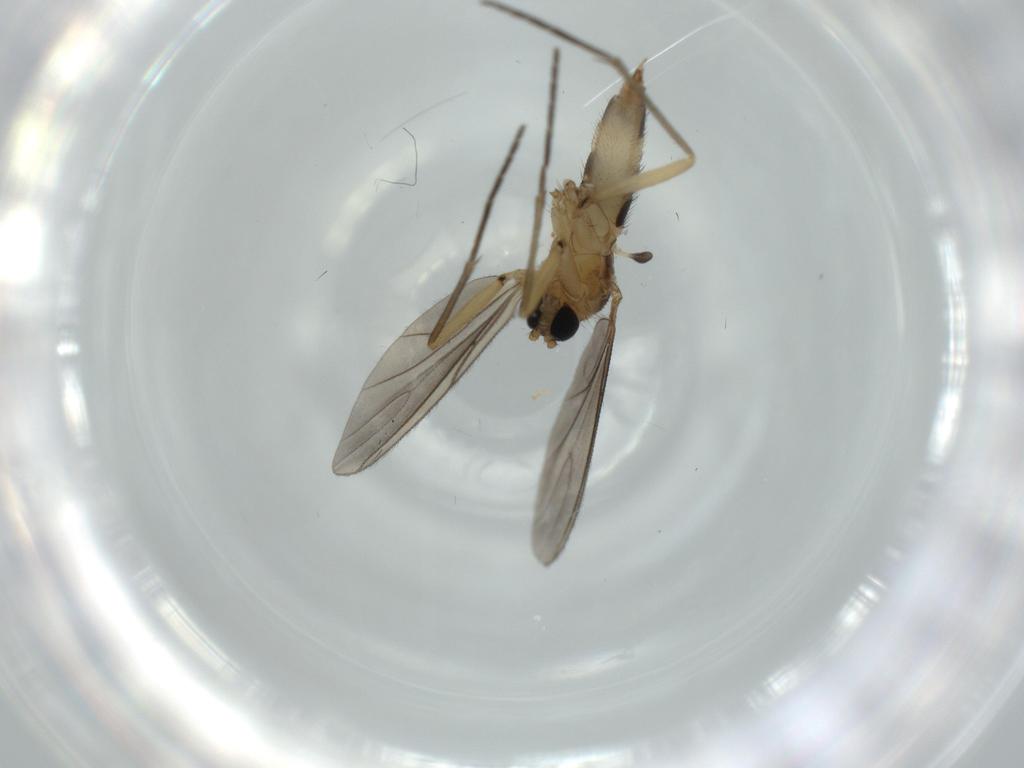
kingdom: Animalia
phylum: Arthropoda
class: Insecta
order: Diptera
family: Sciaridae
